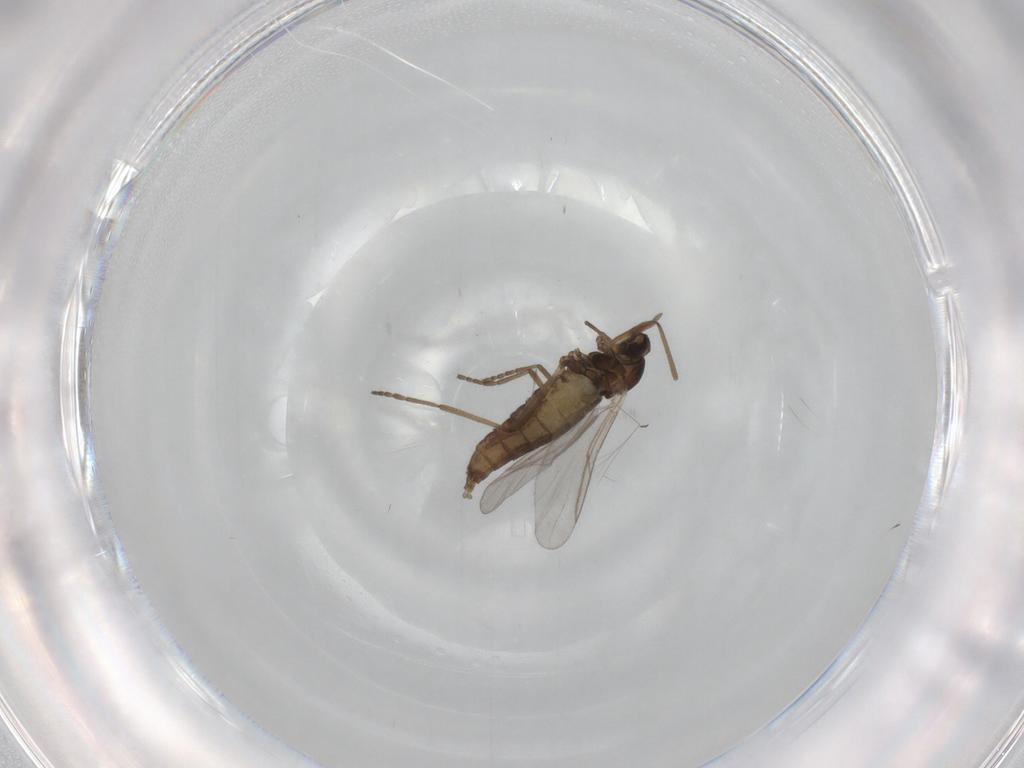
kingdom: Animalia
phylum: Arthropoda
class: Insecta
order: Diptera
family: Cecidomyiidae
